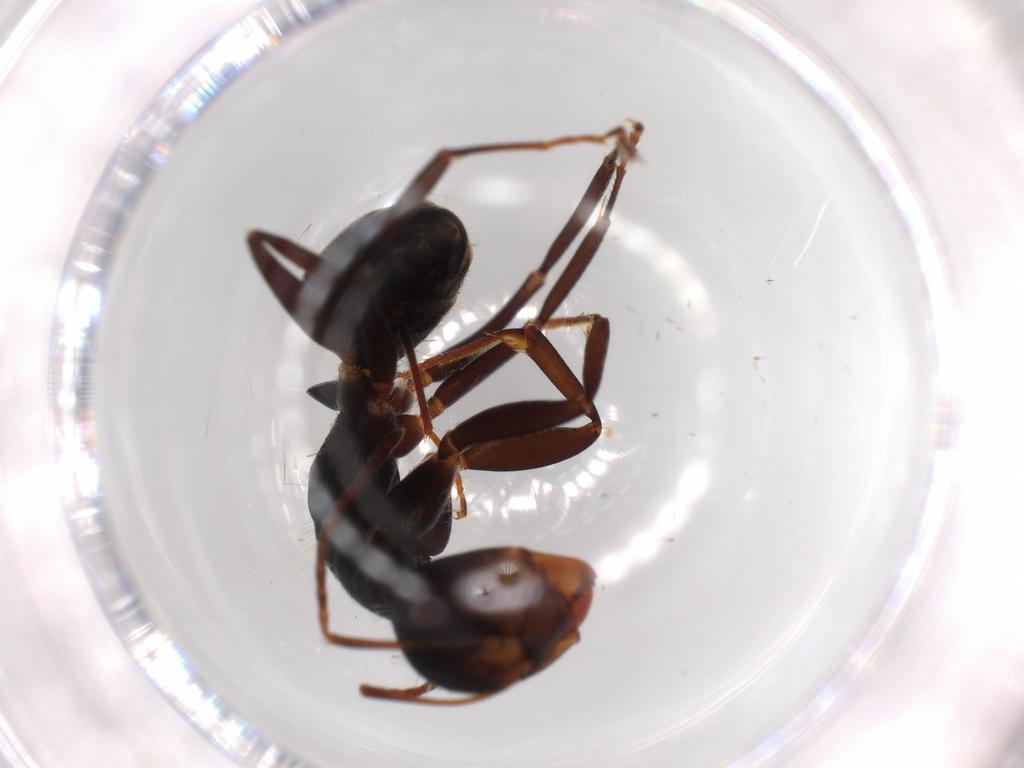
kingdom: Animalia
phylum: Arthropoda
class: Insecta
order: Hymenoptera
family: Formicidae
